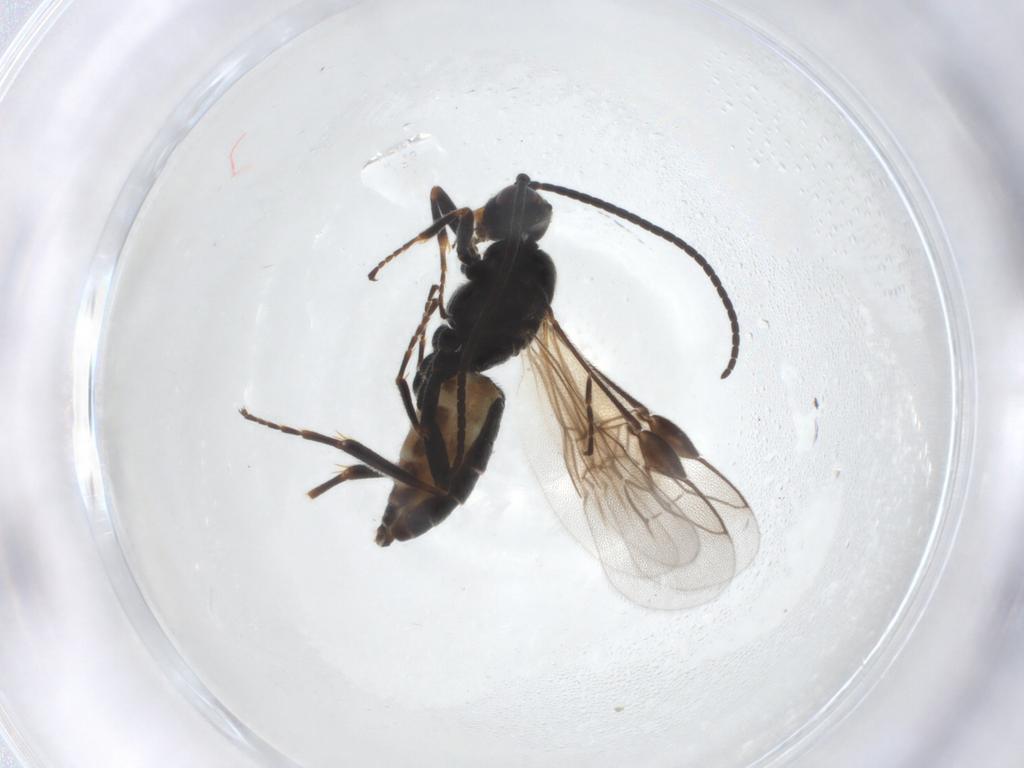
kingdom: Animalia
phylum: Arthropoda
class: Insecta
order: Hymenoptera
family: Braconidae
